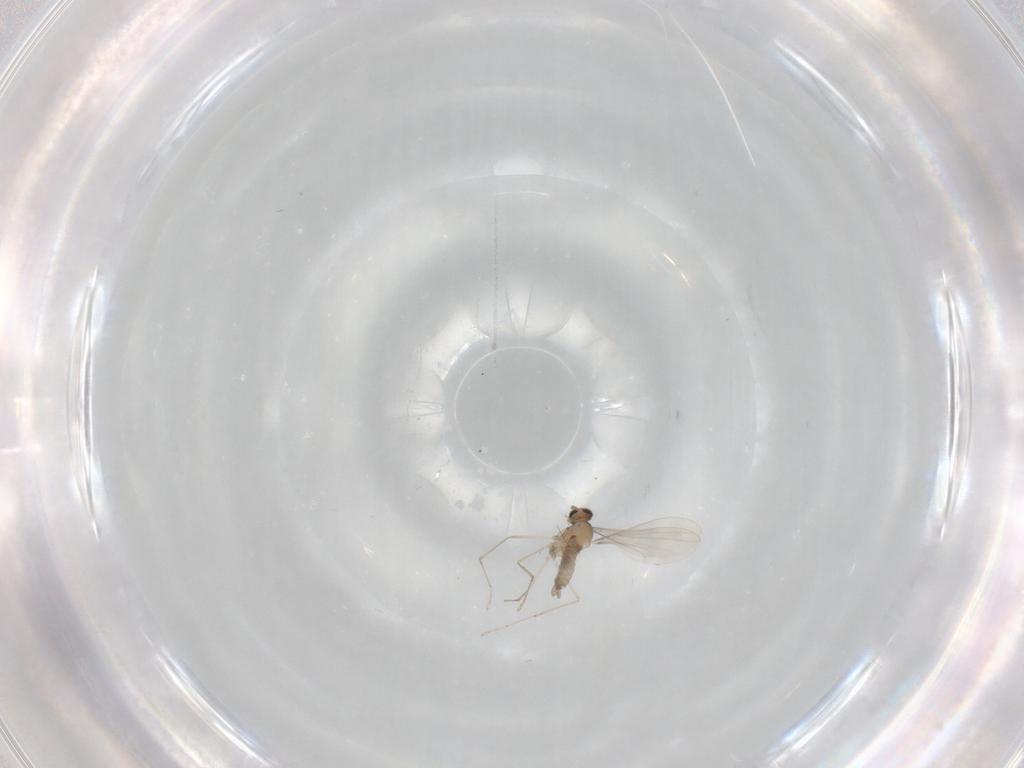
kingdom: Animalia
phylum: Arthropoda
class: Insecta
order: Diptera
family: Cecidomyiidae
